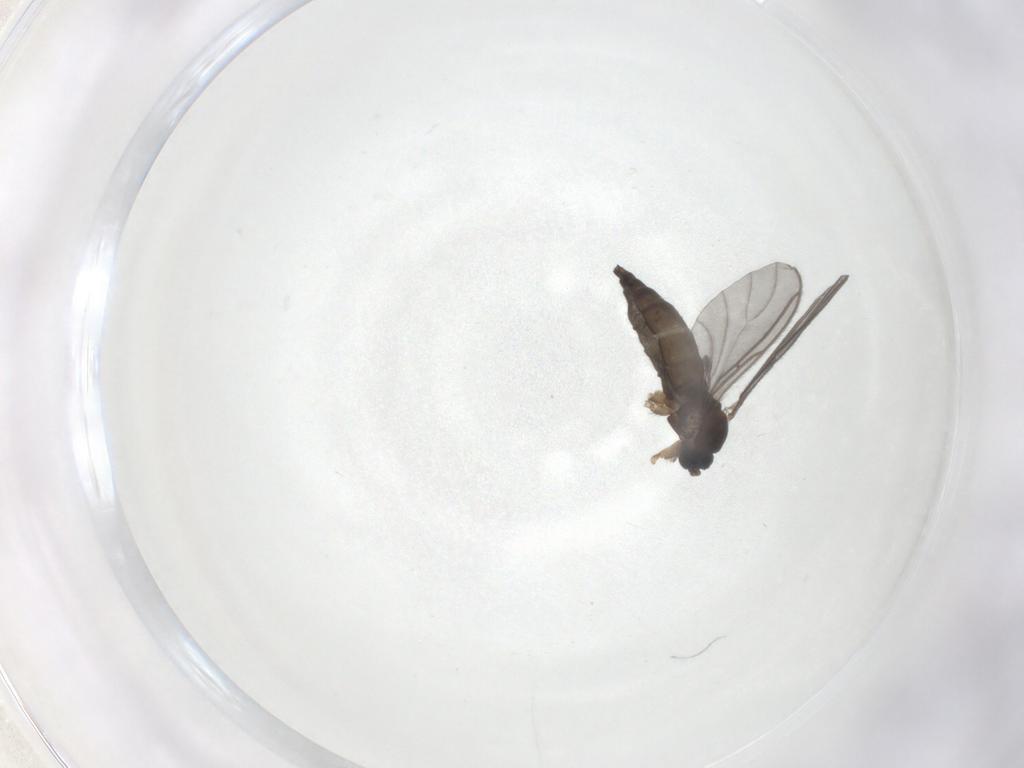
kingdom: Animalia
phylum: Arthropoda
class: Insecta
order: Diptera
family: Sciaridae
